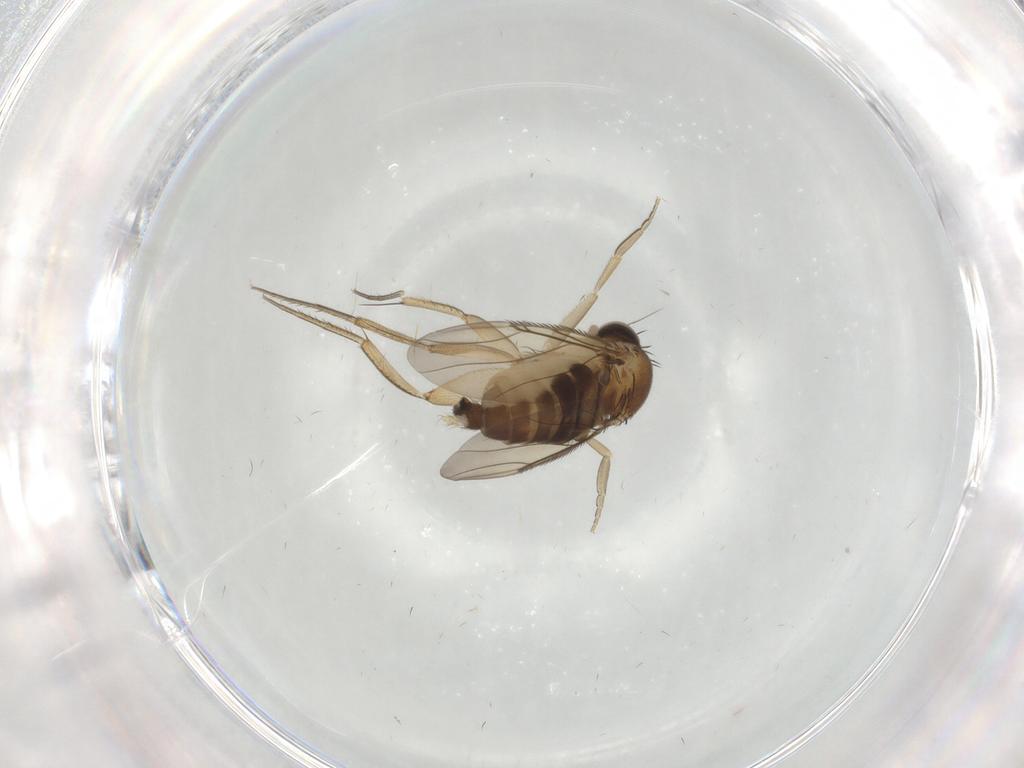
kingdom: Animalia
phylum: Arthropoda
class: Insecta
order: Diptera
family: Phoridae
